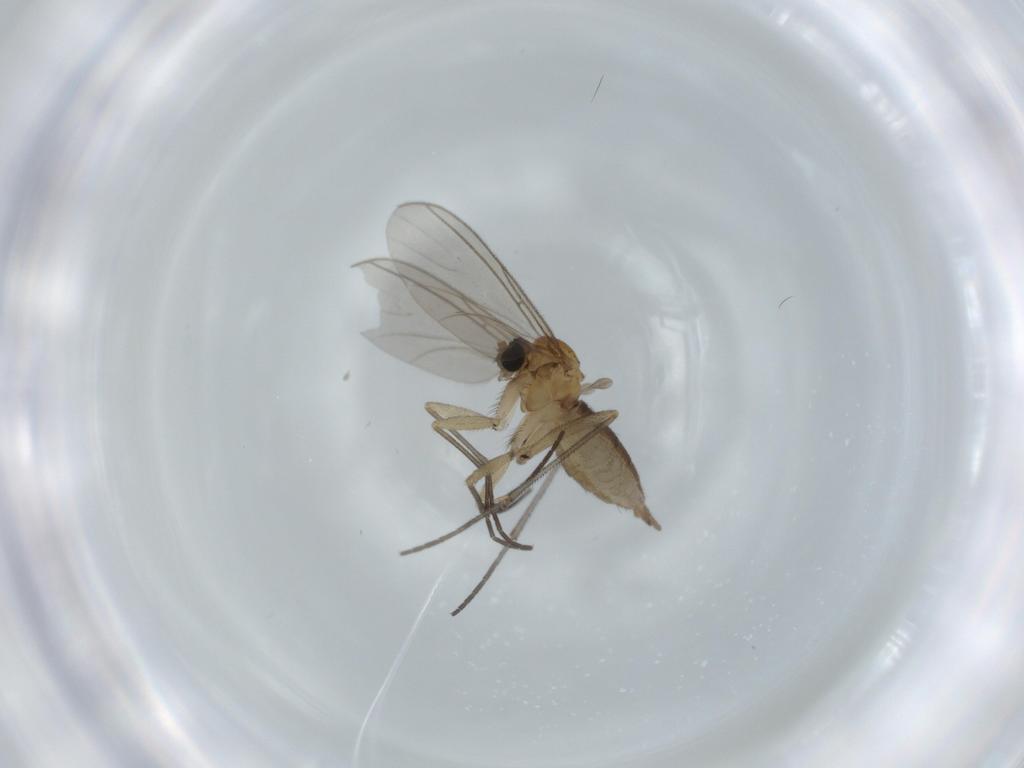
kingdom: Animalia
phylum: Arthropoda
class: Insecta
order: Diptera
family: Sciaridae
